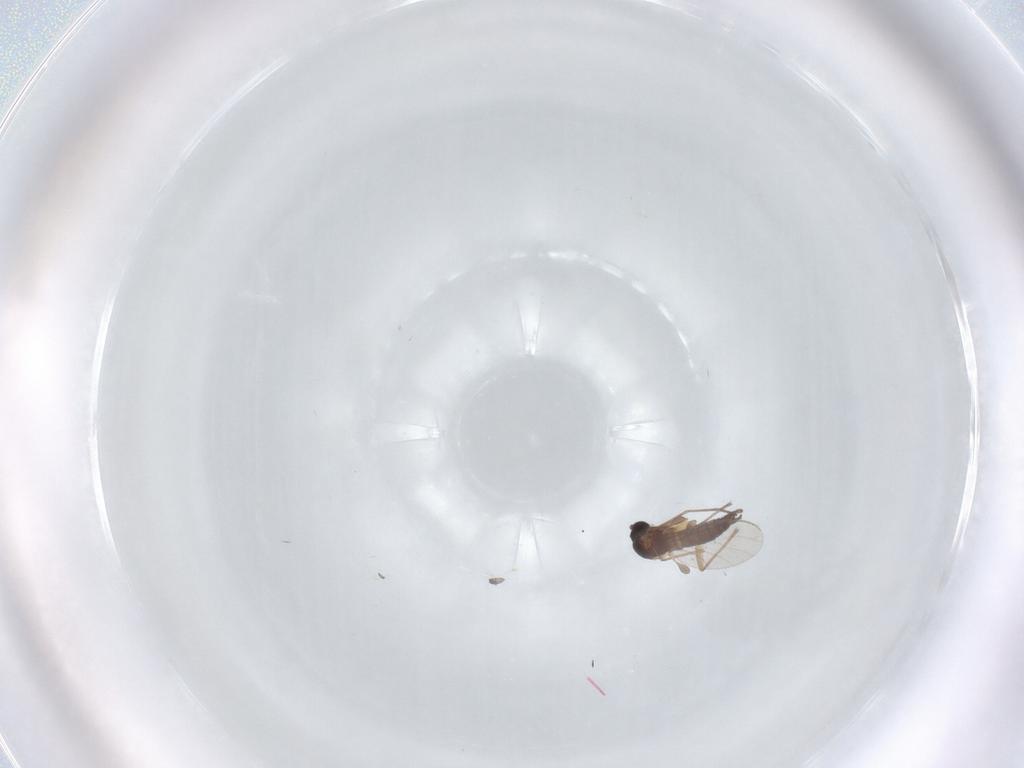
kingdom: Animalia
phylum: Arthropoda
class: Insecta
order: Diptera
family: Sciaridae
